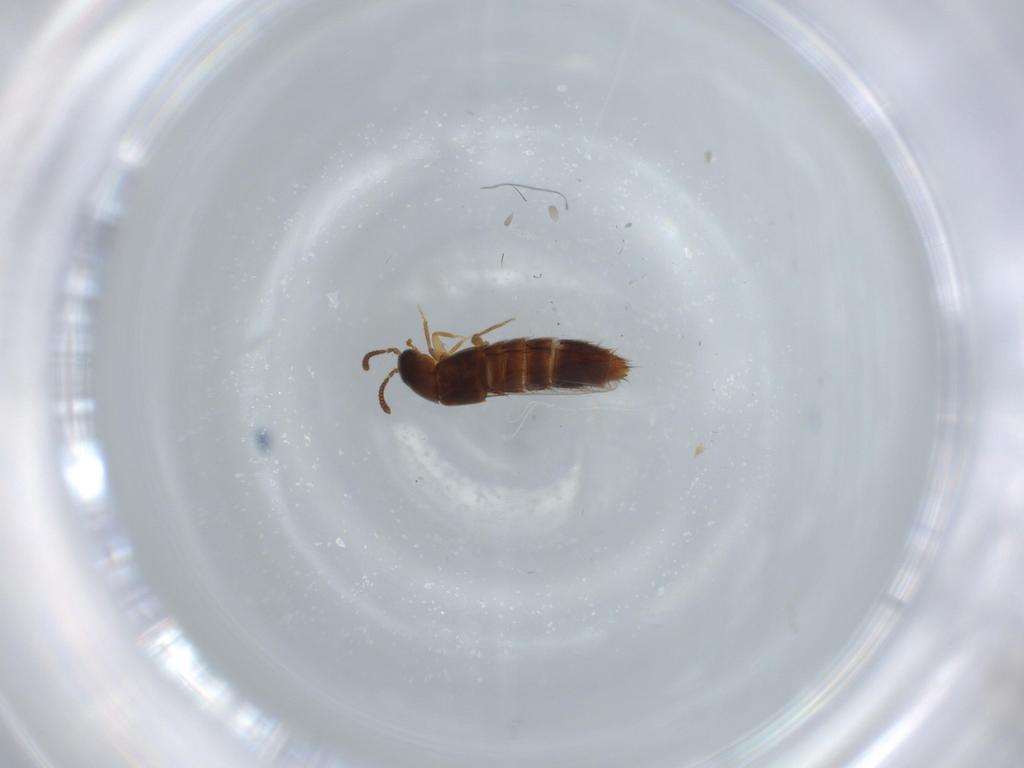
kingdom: Animalia
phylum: Arthropoda
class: Insecta
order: Coleoptera
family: Staphylinidae
